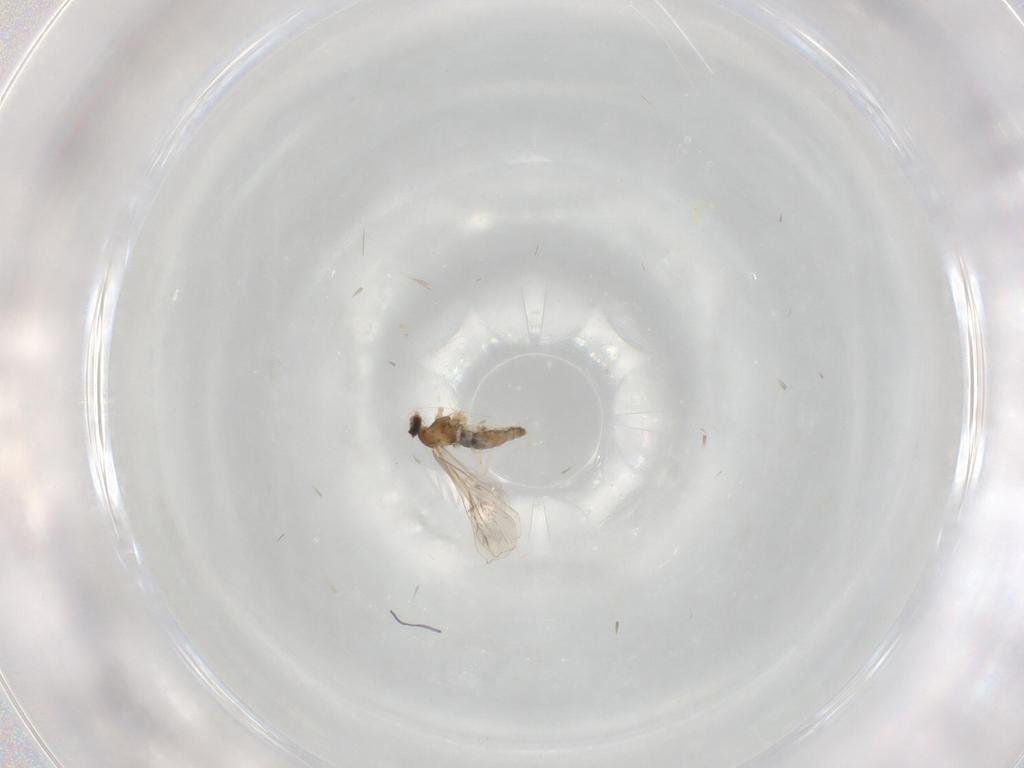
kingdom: Animalia
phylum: Arthropoda
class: Insecta
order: Diptera
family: Cecidomyiidae
